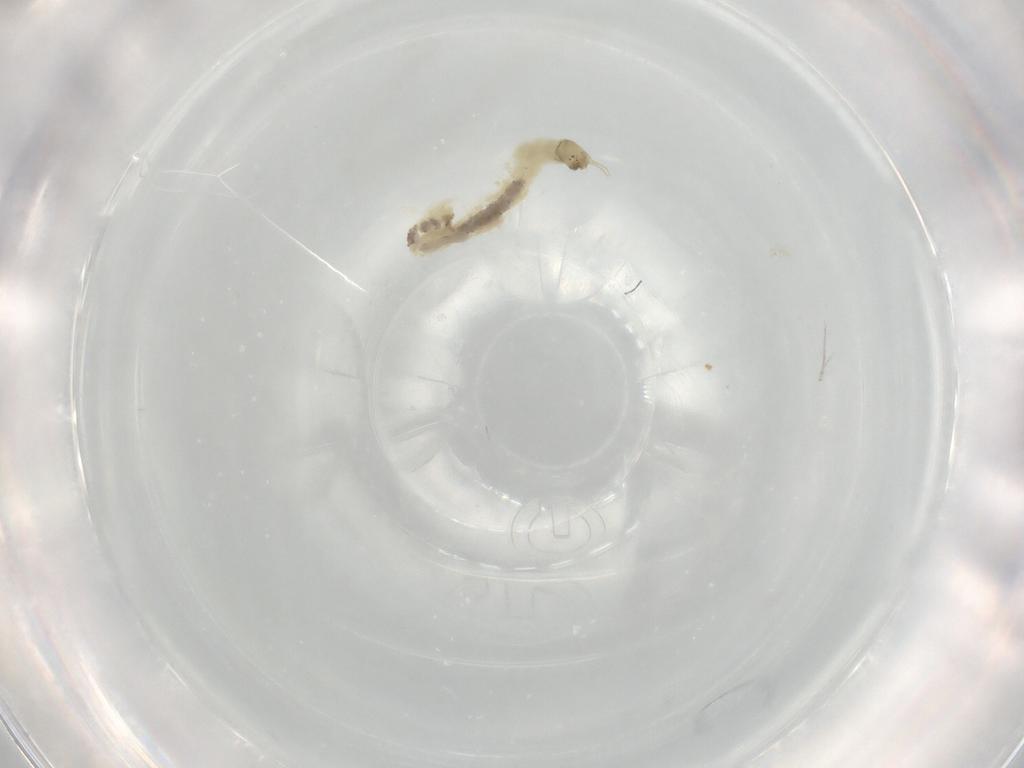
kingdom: Animalia
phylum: Arthropoda
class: Insecta
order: Diptera
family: Chironomidae
